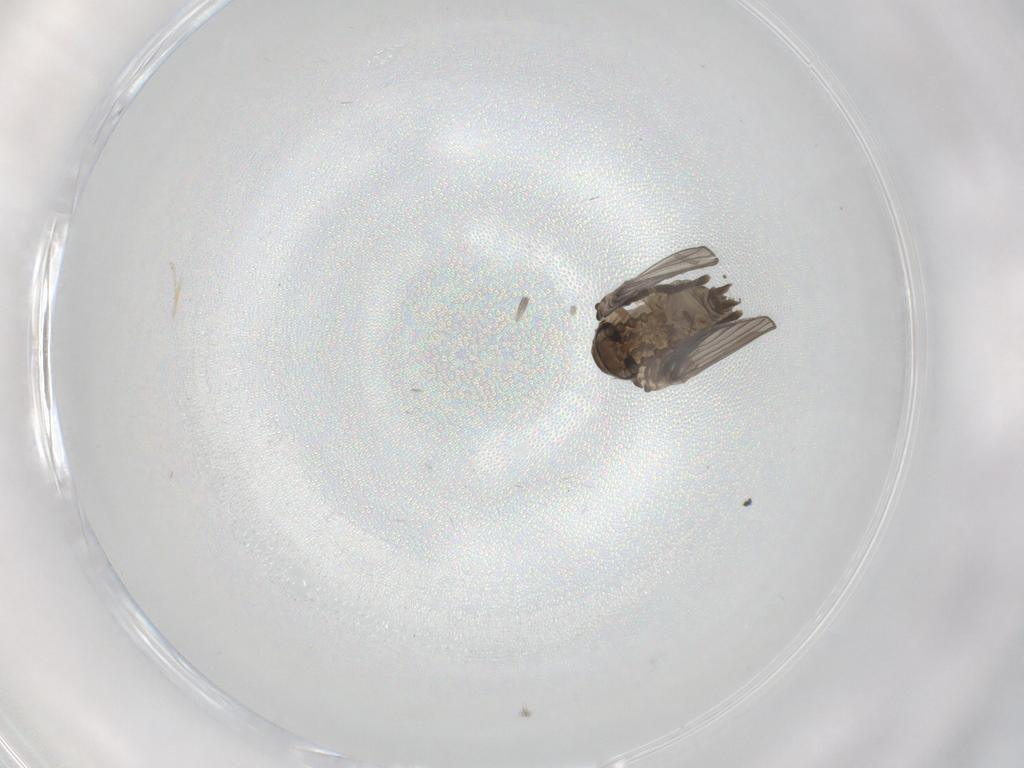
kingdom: Animalia
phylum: Arthropoda
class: Insecta
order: Diptera
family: Psychodidae
